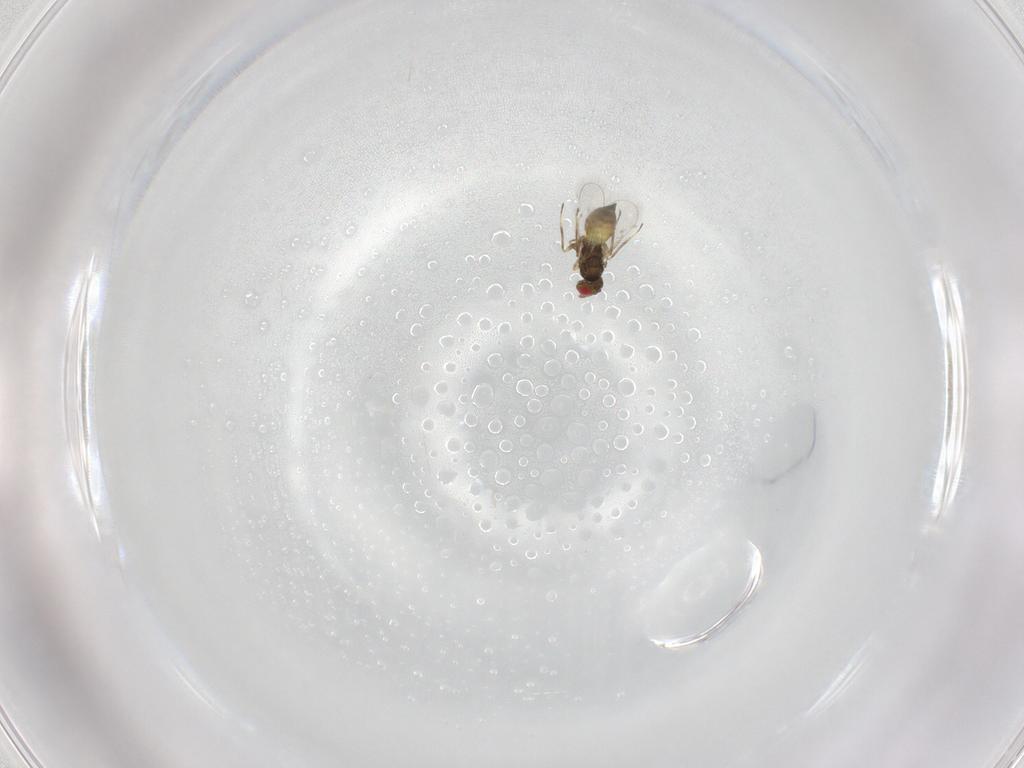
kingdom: Animalia
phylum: Arthropoda
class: Insecta
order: Hymenoptera
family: Eulophidae
